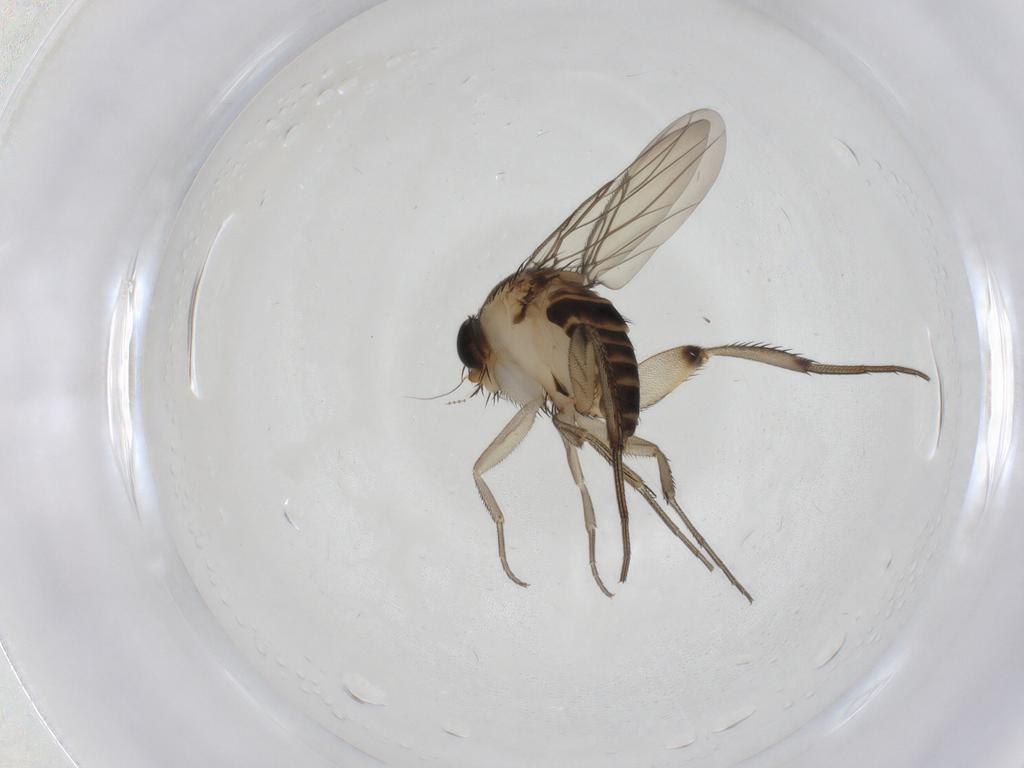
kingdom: Animalia
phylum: Arthropoda
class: Insecta
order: Diptera
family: Phoridae
